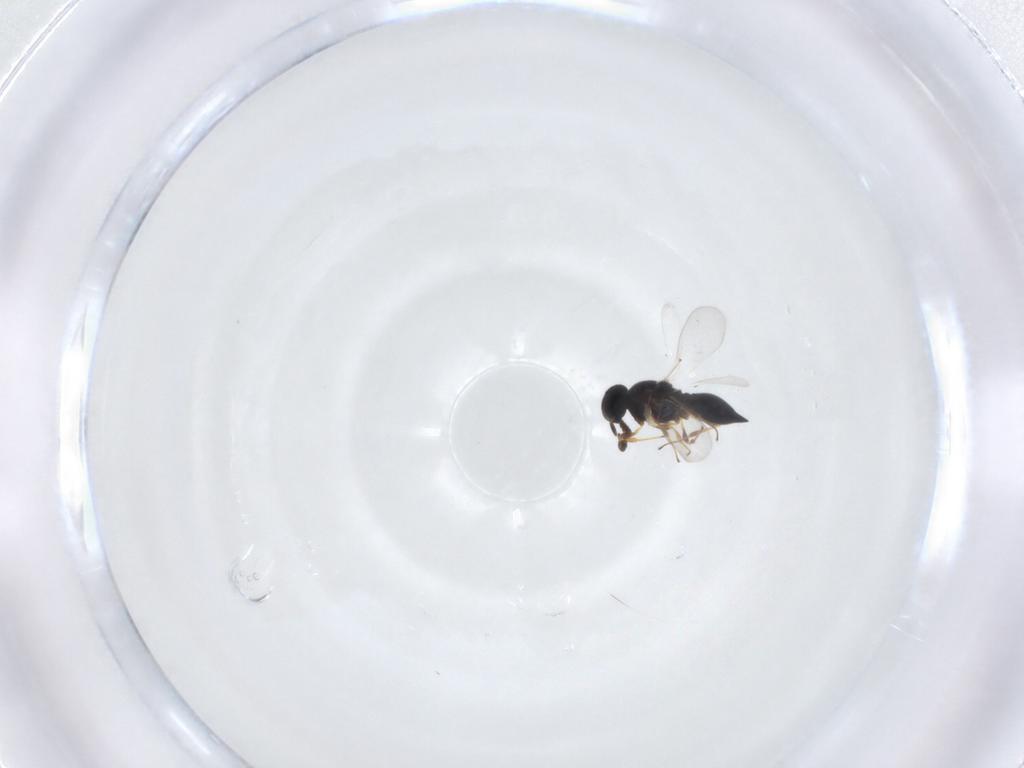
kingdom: Animalia
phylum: Arthropoda
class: Insecta
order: Hymenoptera
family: Platygastridae
